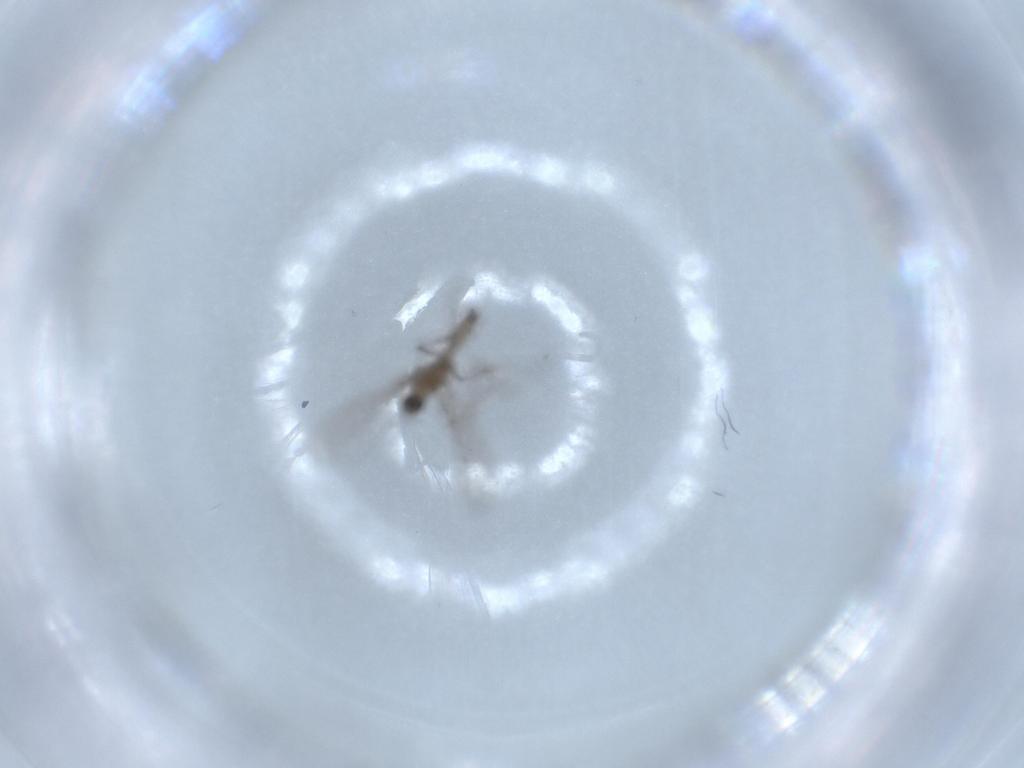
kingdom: Animalia
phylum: Arthropoda
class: Insecta
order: Diptera
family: Cecidomyiidae
